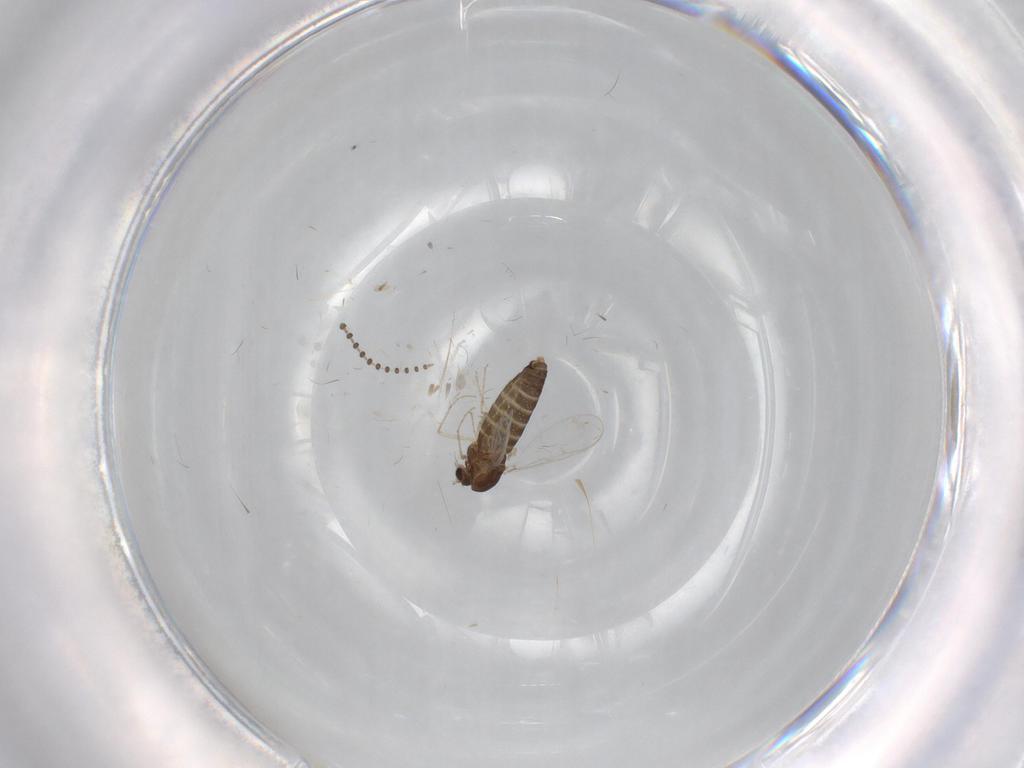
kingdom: Animalia
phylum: Arthropoda
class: Insecta
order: Diptera
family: Chironomidae
